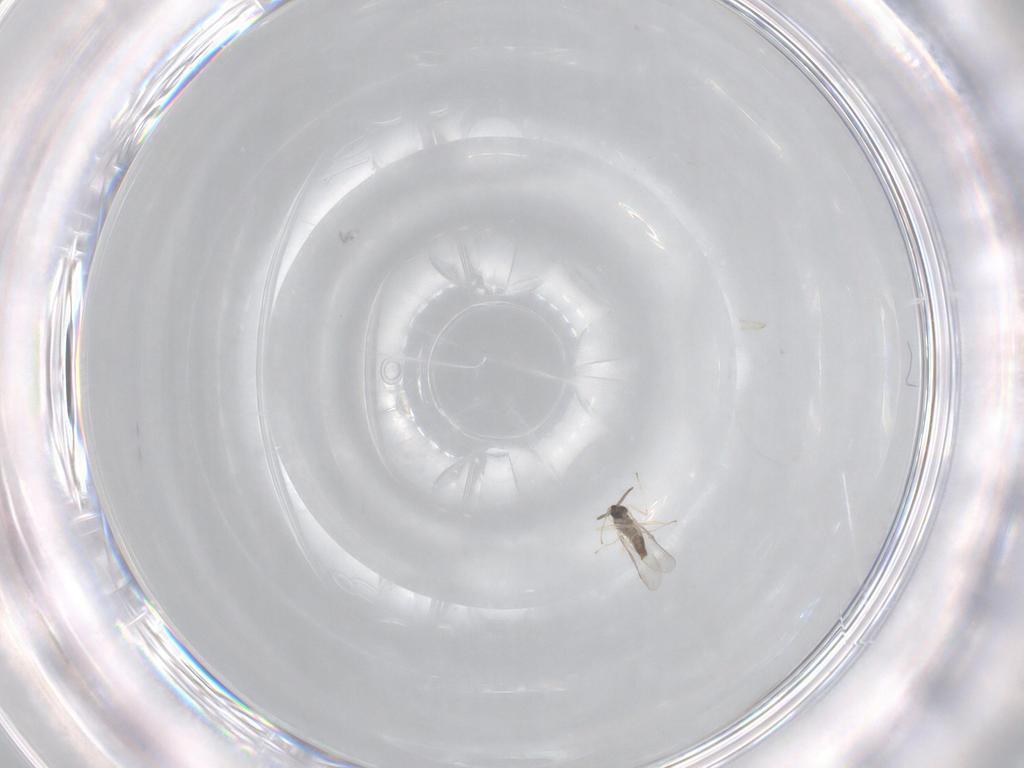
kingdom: Animalia
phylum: Arthropoda
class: Insecta
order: Diptera
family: Cecidomyiidae
